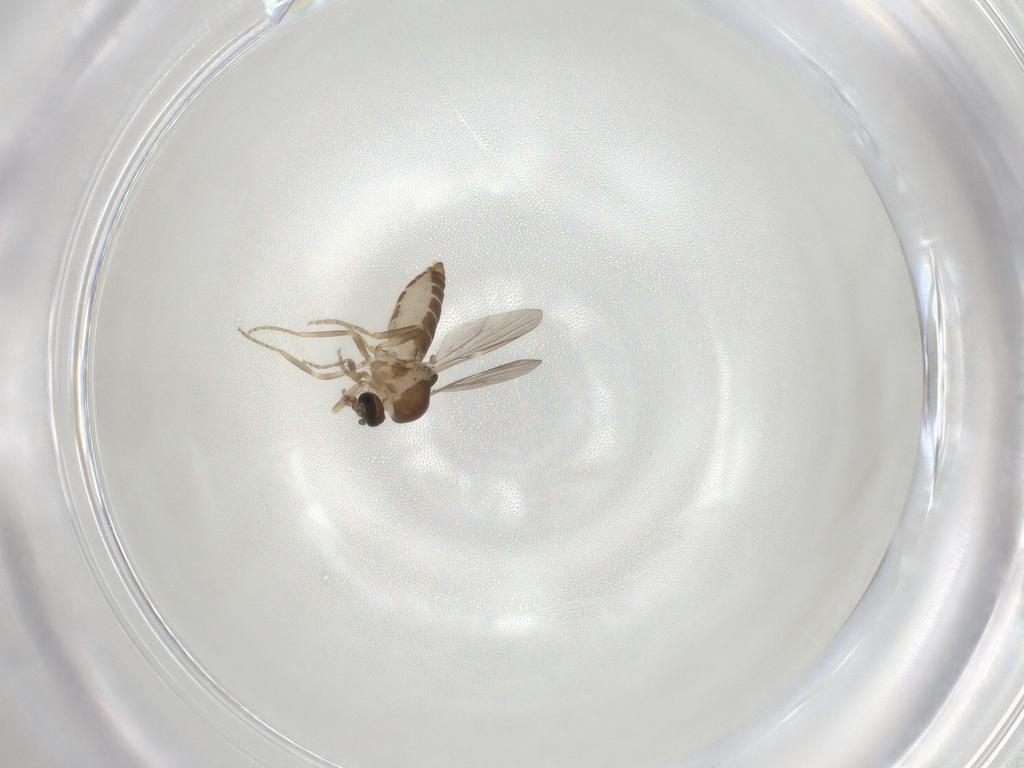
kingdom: Animalia
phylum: Arthropoda
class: Insecta
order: Diptera
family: Ceratopogonidae
